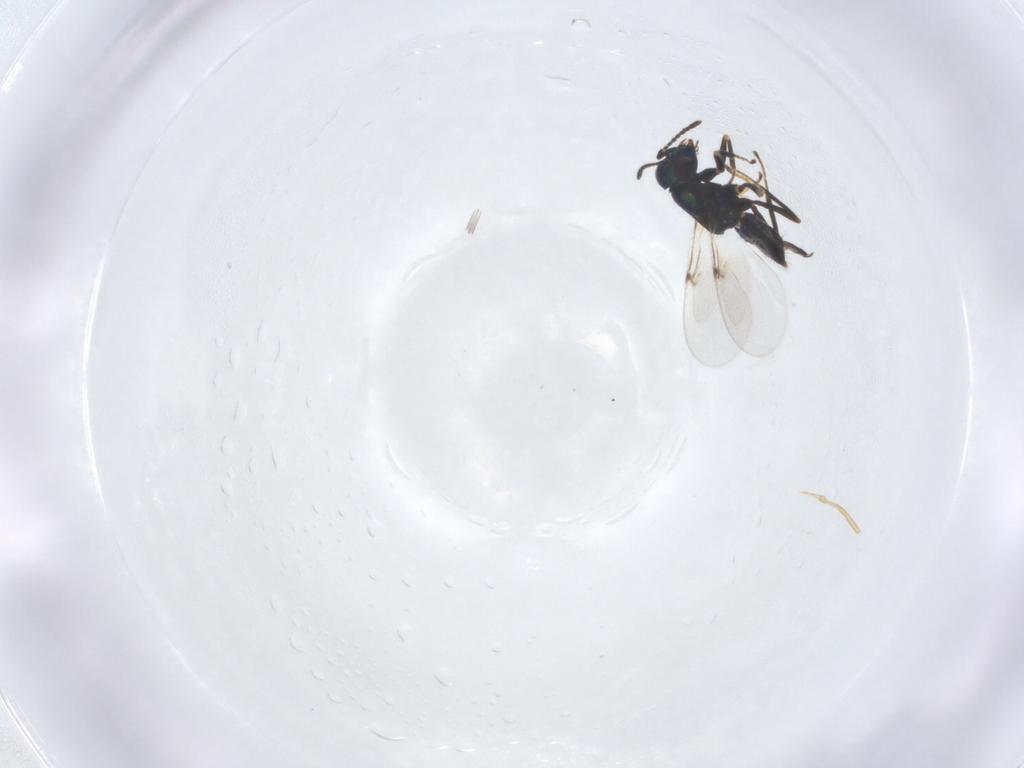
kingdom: Animalia
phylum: Arthropoda
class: Insecta
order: Hymenoptera
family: Encyrtidae
